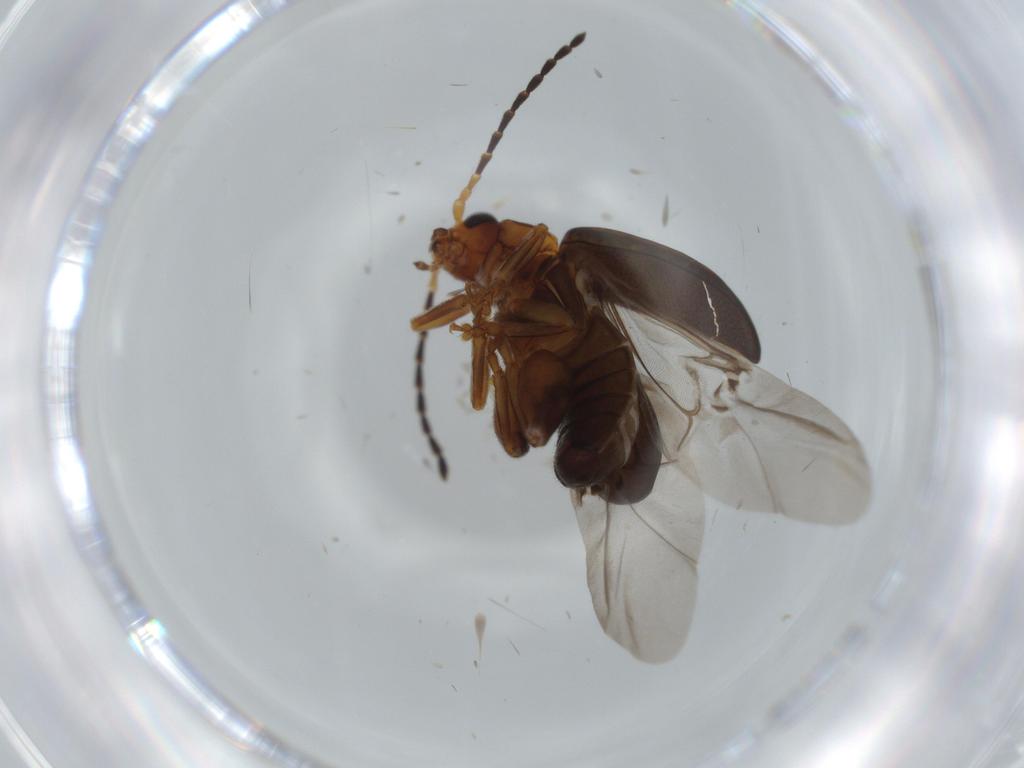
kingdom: Animalia
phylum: Arthropoda
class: Insecta
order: Coleoptera
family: Chrysomelidae
